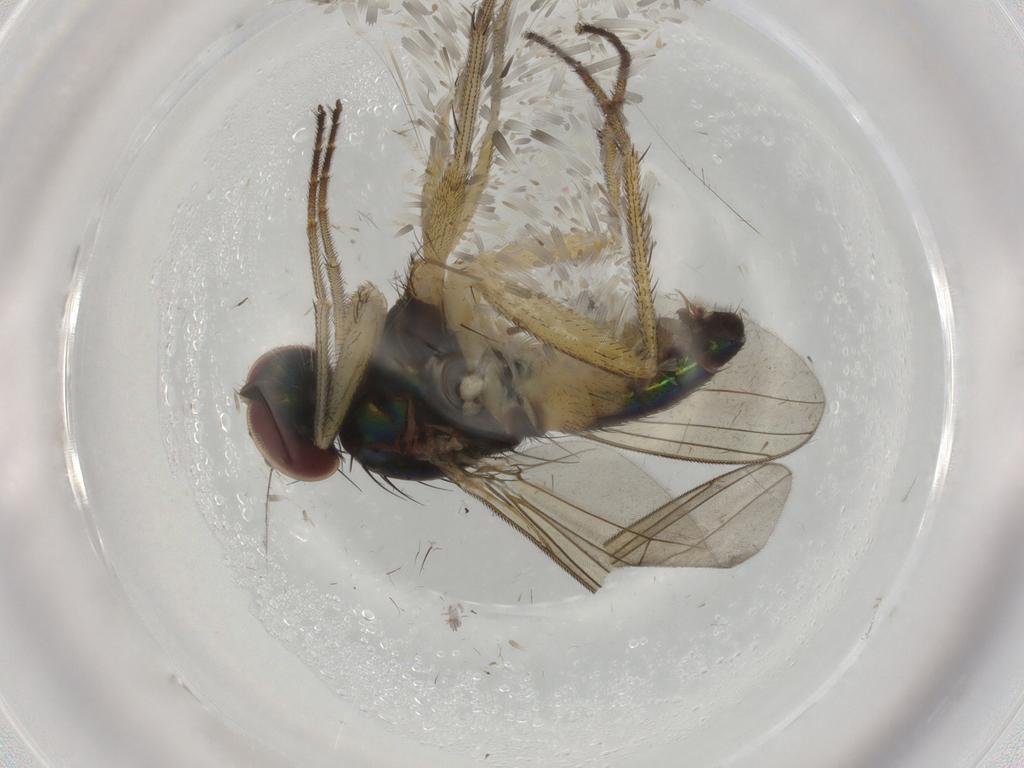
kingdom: Animalia
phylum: Arthropoda
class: Insecta
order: Diptera
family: Dolichopodidae
